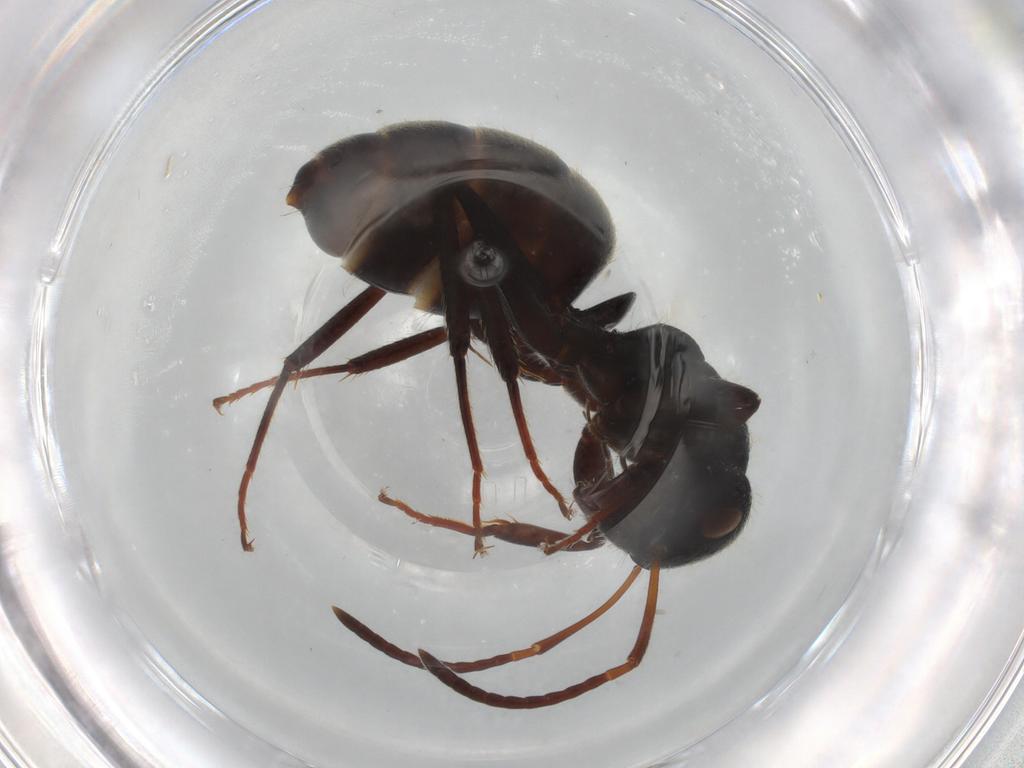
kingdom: Animalia
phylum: Arthropoda
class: Insecta
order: Hymenoptera
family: Formicidae
